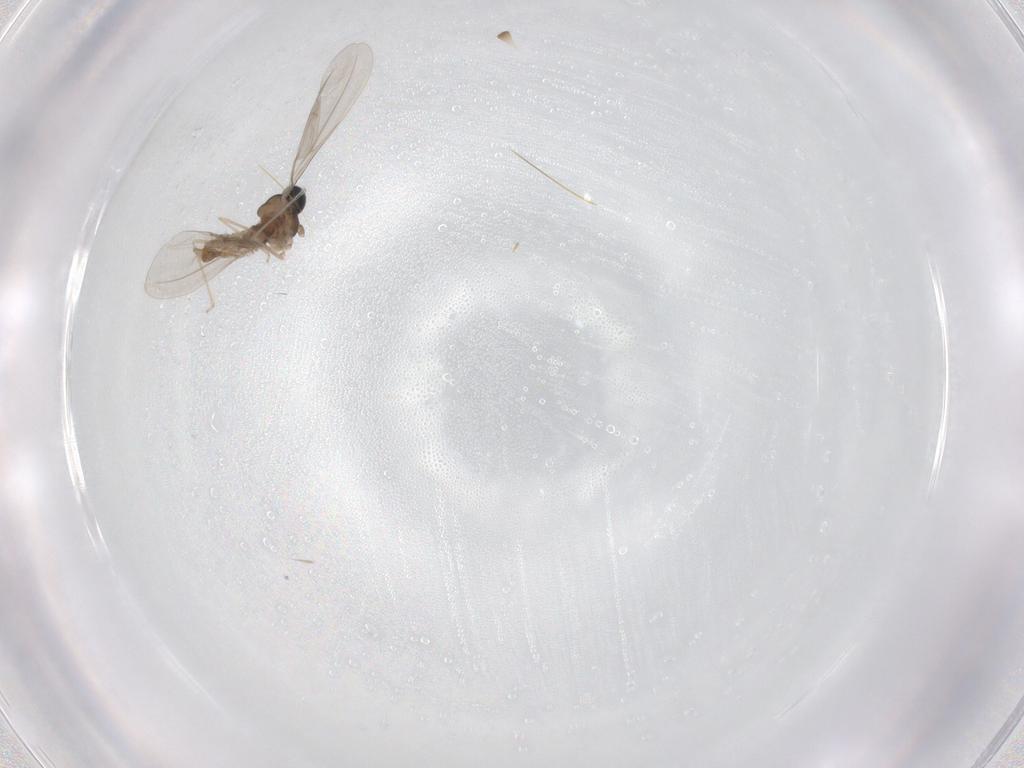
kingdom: Animalia
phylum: Arthropoda
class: Insecta
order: Diptera
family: Cecidomyiidae
